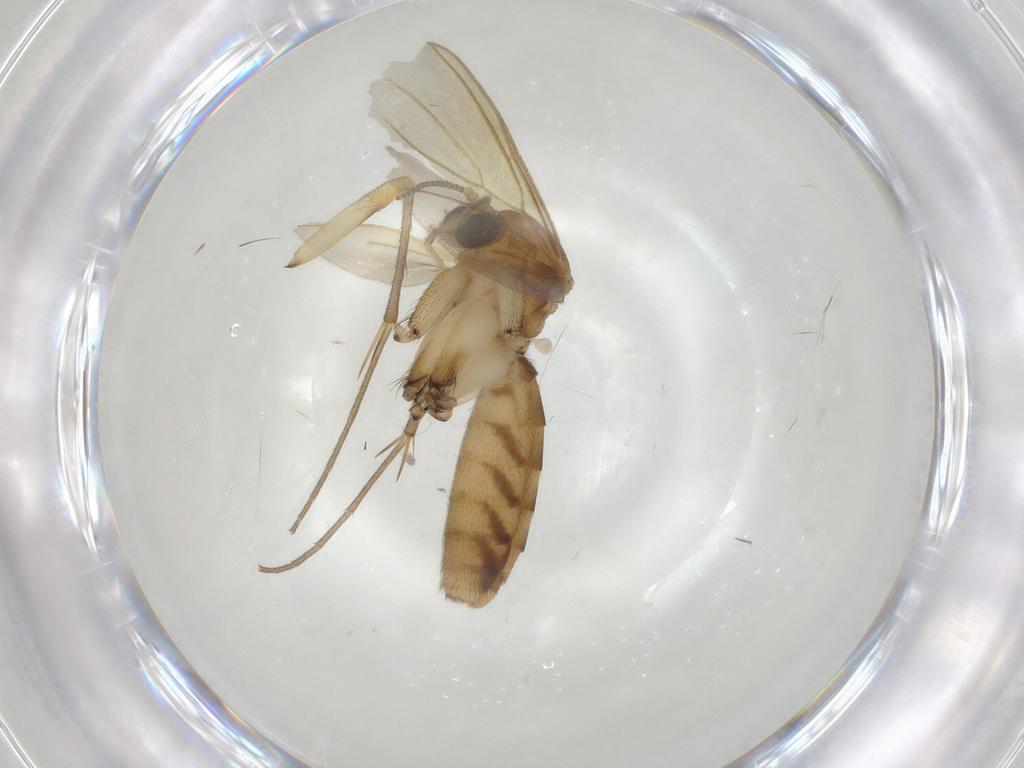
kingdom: Animalia
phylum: Arthropoda
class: Insecta
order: Diptera
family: Mycetophilidae
